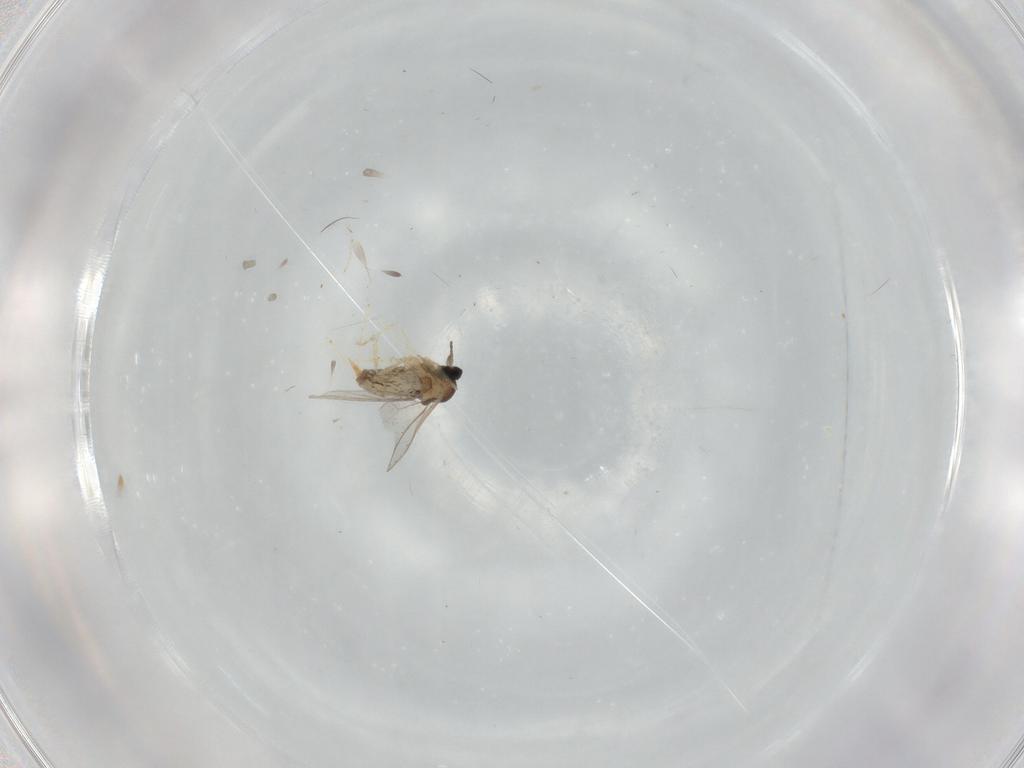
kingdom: Animalia
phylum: Arthropoda
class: Insecta
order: Diptera
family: Cecidomyiidae
